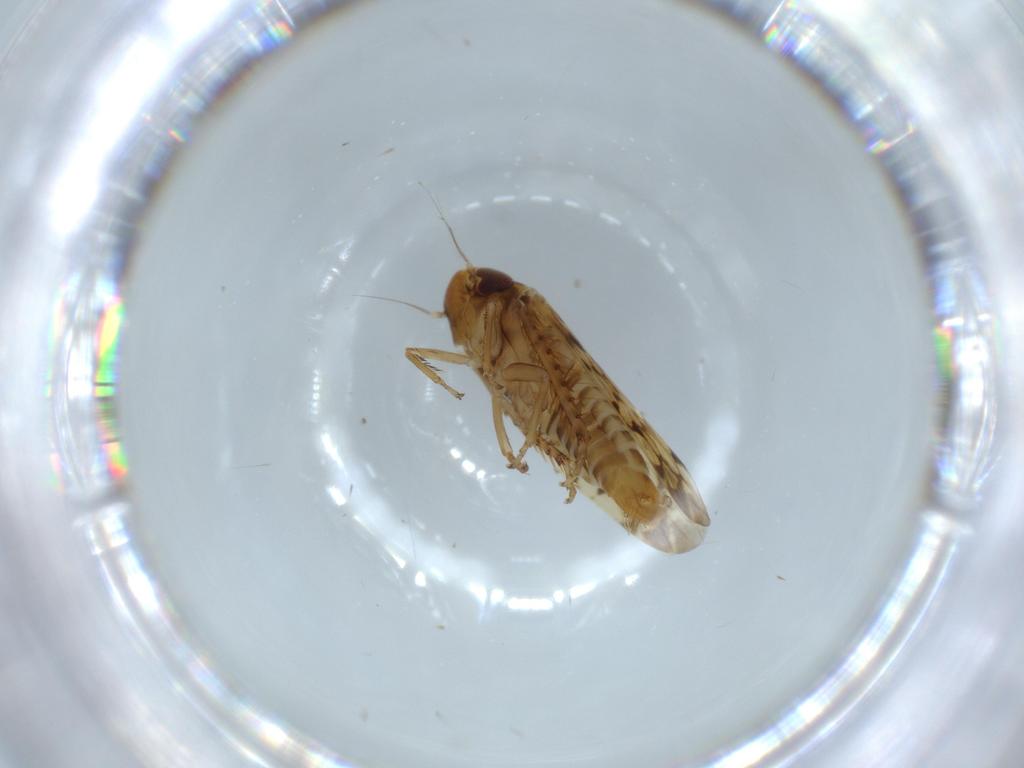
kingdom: Animalia
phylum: Arthropoda
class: Insecta
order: Hemiptera
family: Cicadellidae
